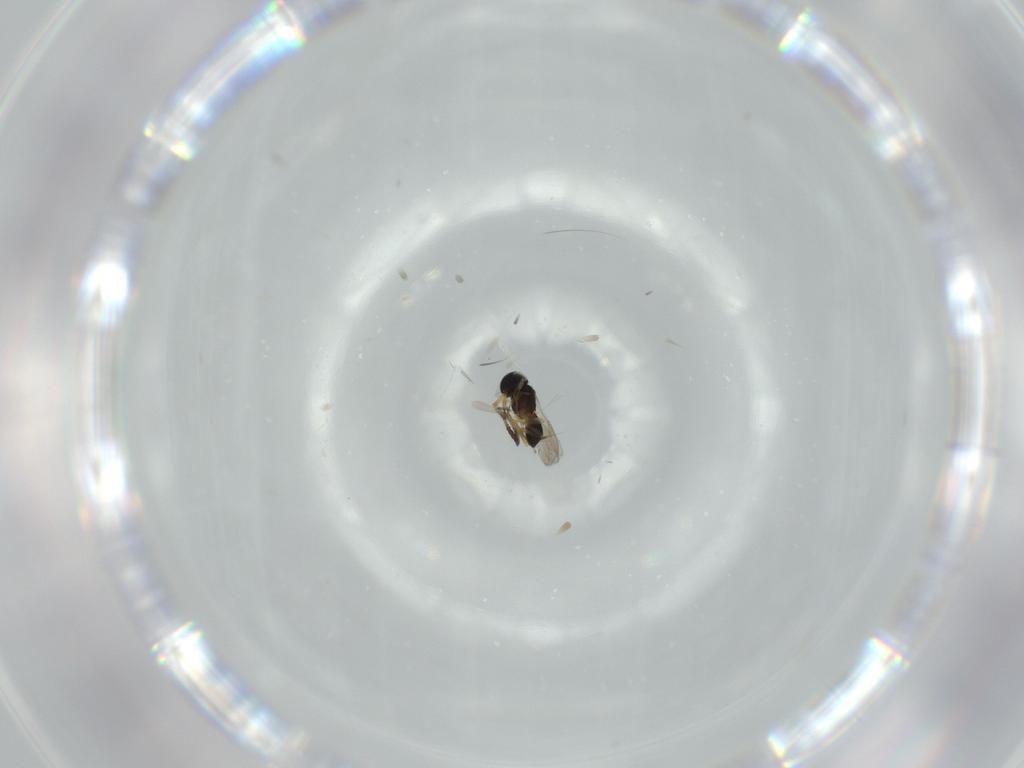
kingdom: Animalia
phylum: Arthropoda
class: Insecta
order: Hymenoptera
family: Scelionidae
